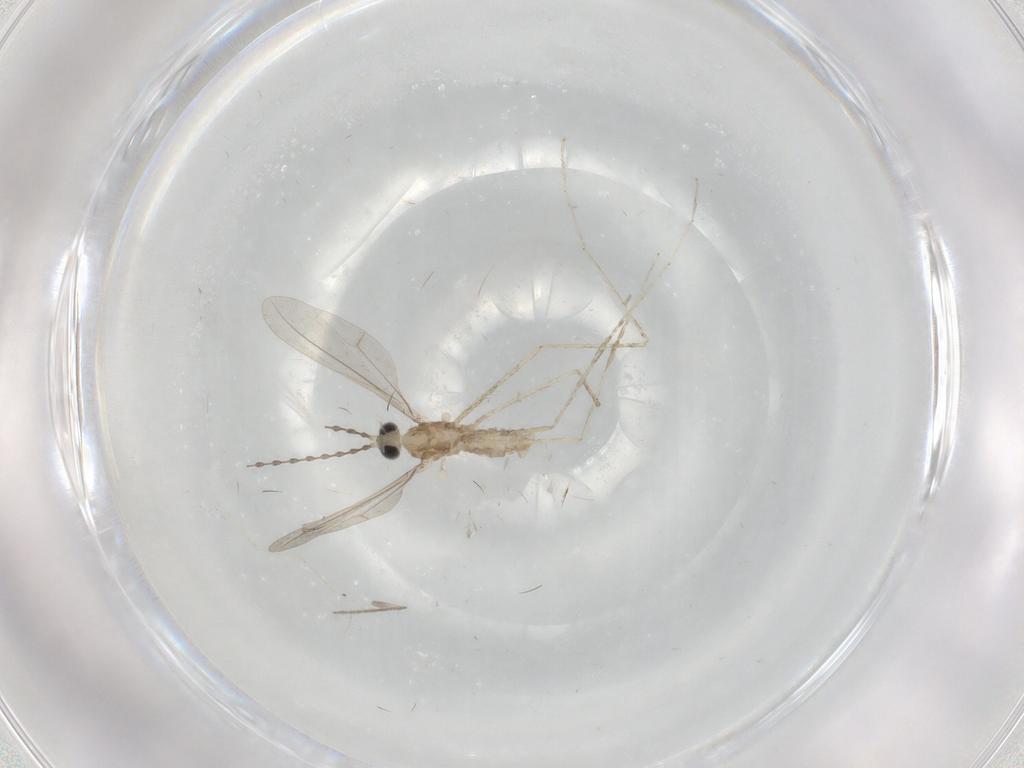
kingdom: Animalia
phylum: Arthropoda
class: Insecta
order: Diptera
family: Cecidomyiidae
